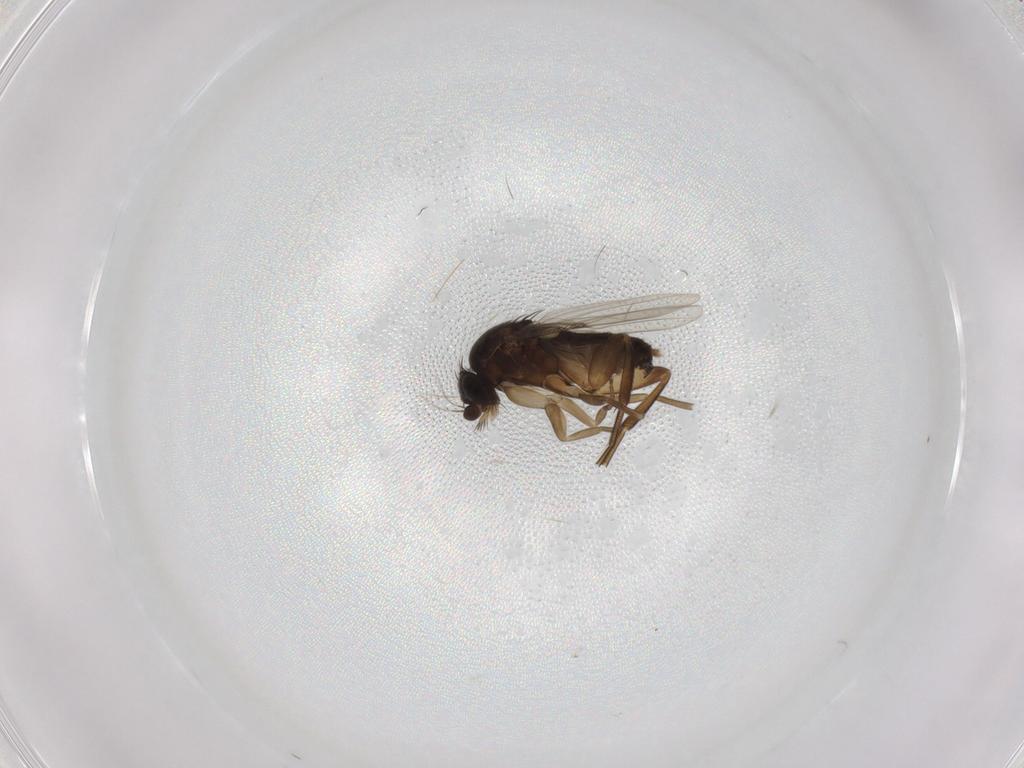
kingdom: Animalia
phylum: Arthropoda
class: Insecta
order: Diptera
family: Phoridae
